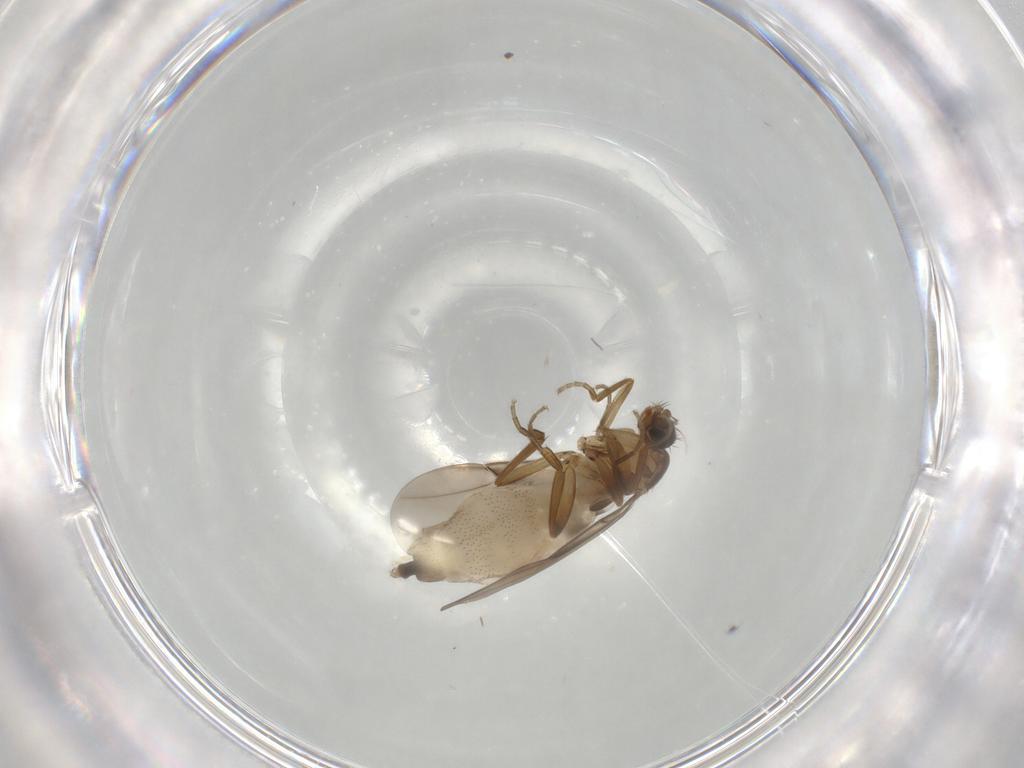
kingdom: Animalia
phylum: Arthropoda
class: Insecta
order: Diptera
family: Phoridae
